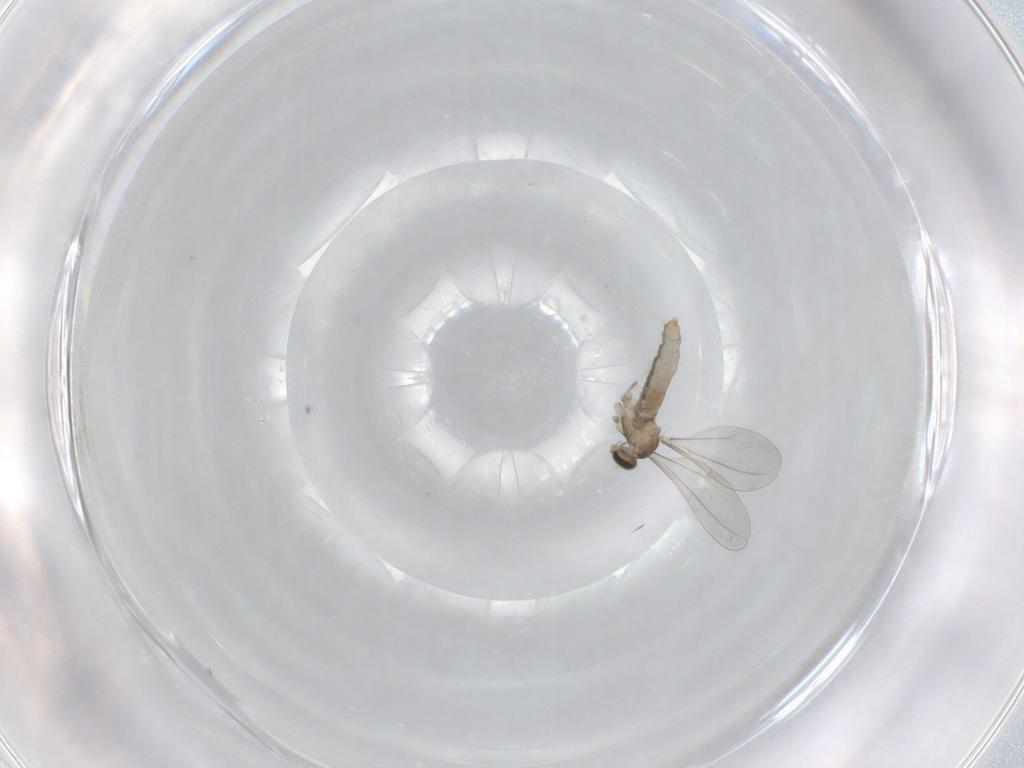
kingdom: Animalia
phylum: Arthropoda
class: Insecta
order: Diptera
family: Cecidomyiidae
